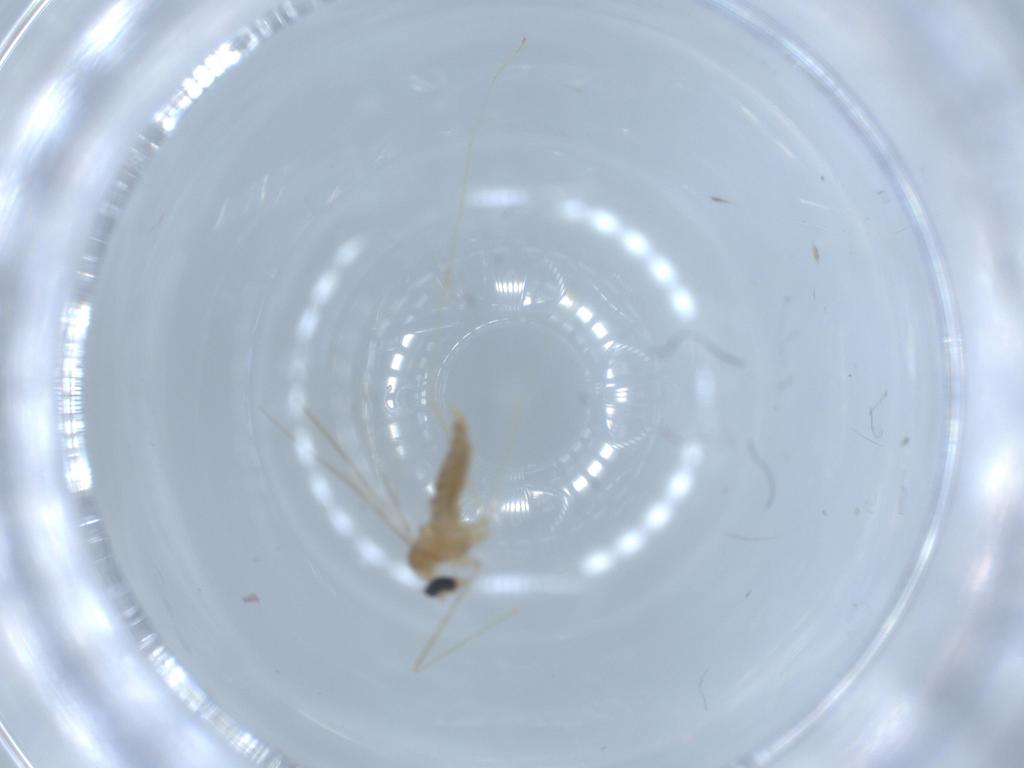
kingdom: Animalia
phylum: Arthropoda
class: Insecta
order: Diptera
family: Cecidomyiidae
